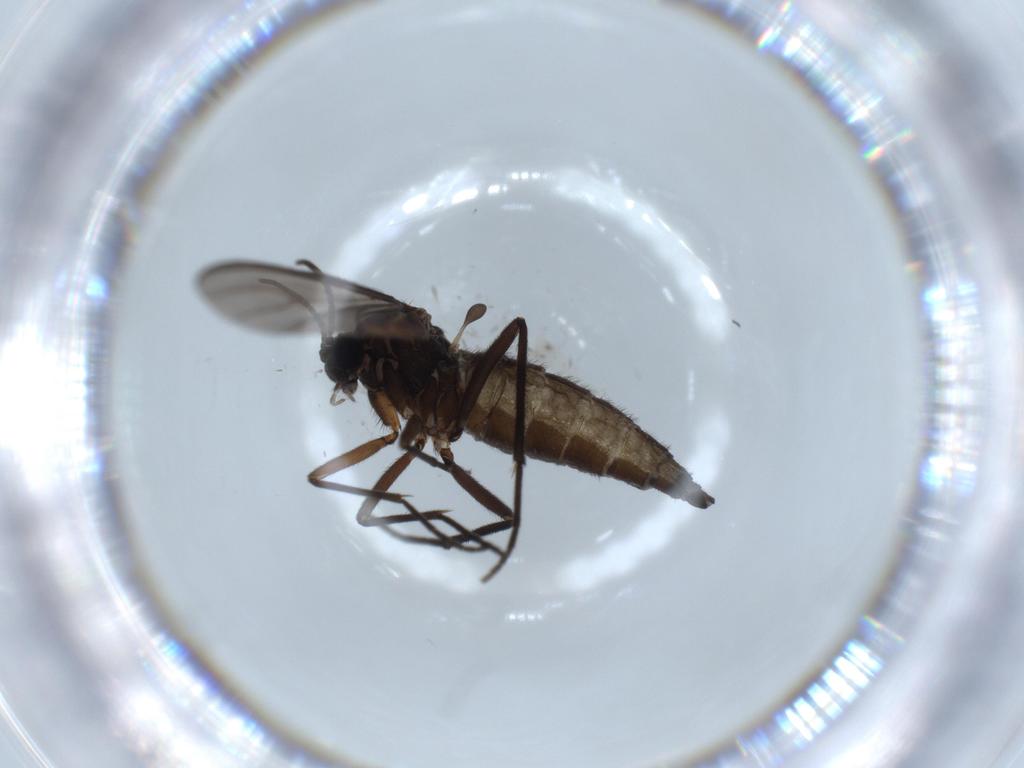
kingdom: Animalia
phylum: Arthropoda
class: Insecta
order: Diptera
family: Sciaridae
